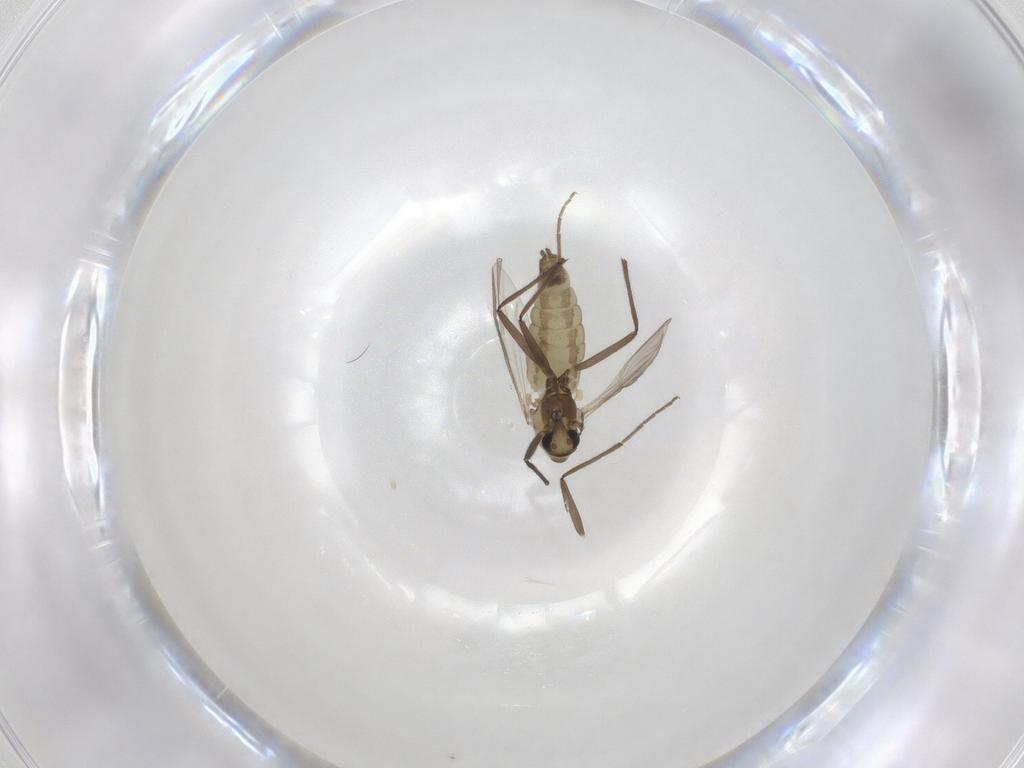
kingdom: Animalia
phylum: Arthropoda
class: Insecta
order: Diptera
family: Chironomidae
